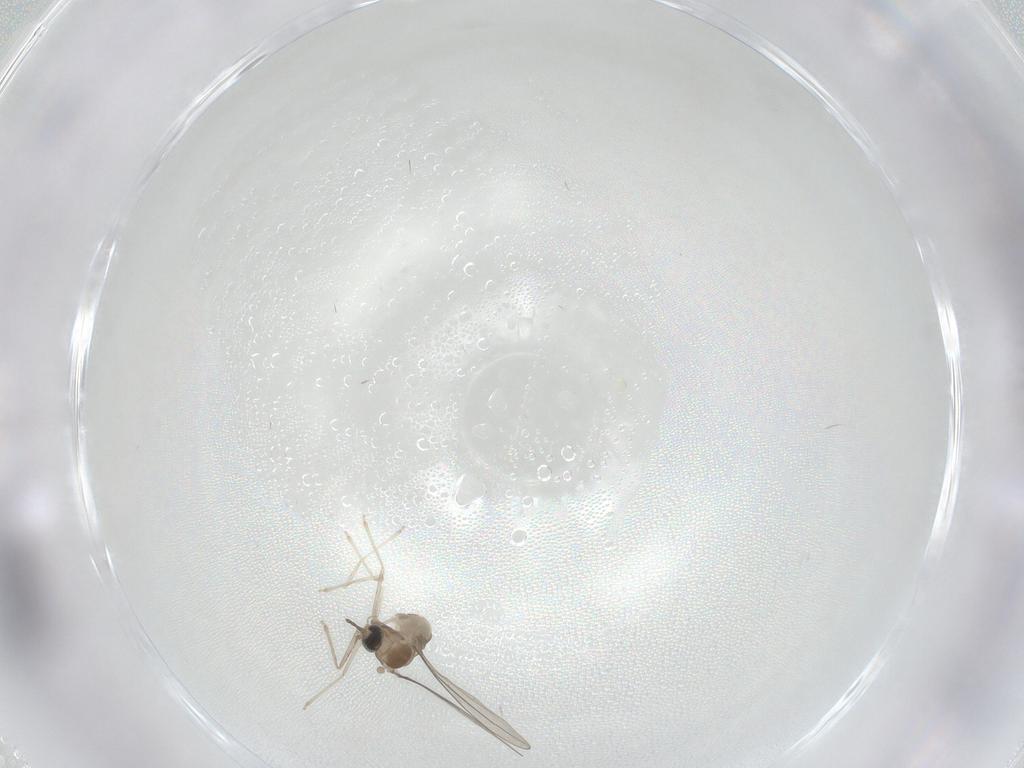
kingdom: Animalia
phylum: Arthropoda
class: Insecta
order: Diptera
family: Cecidomyiidae
